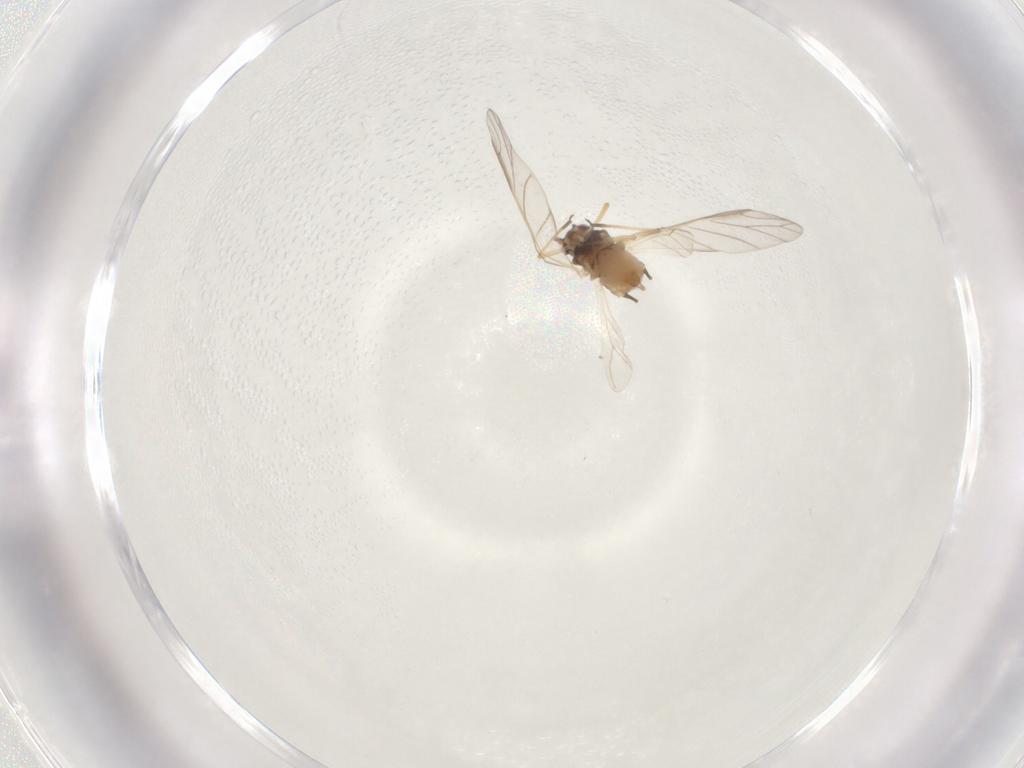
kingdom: Animalia
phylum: Arthropoda
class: Insecta
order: Hemiptera
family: Aphididae
